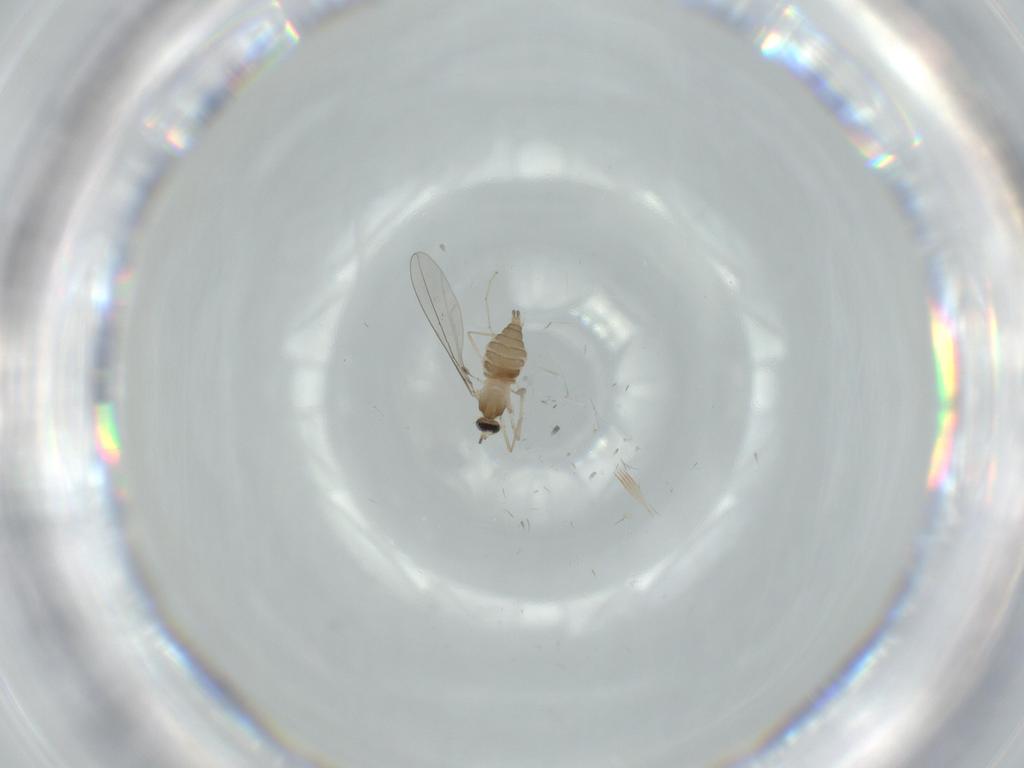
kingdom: Animalia
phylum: Arthropoda
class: Insecta
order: Diptera
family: Cecidomyiidae
